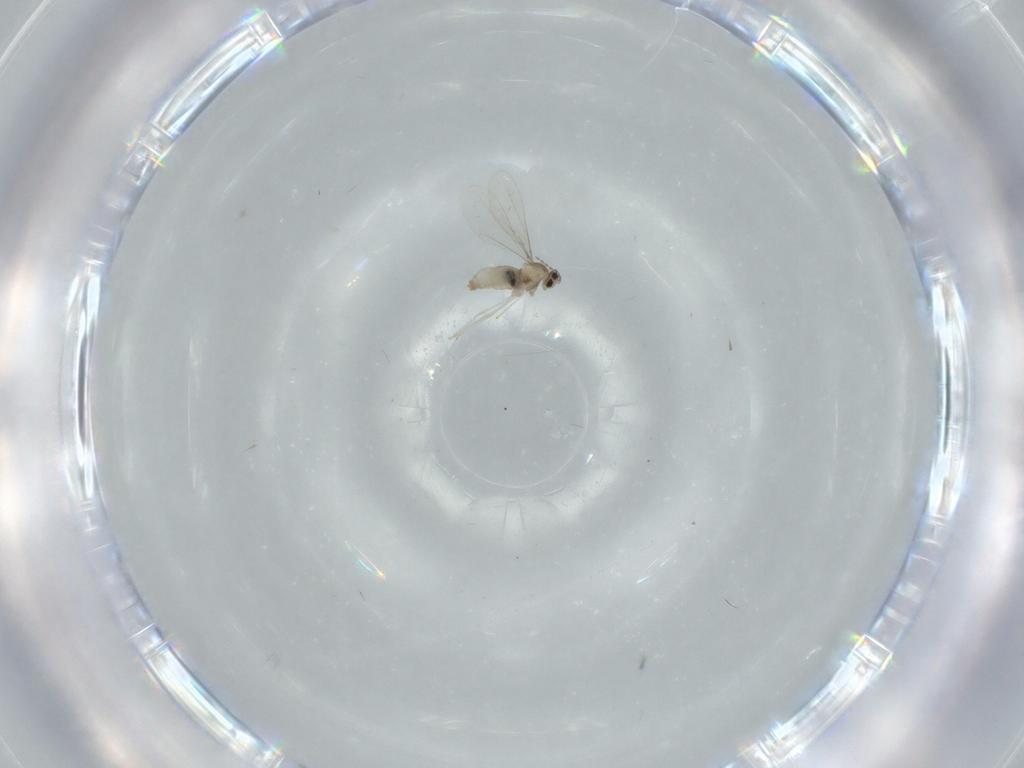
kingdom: Animalia
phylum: Arthropoda
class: Insecta
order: Diptera
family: Cecidomyiidae
